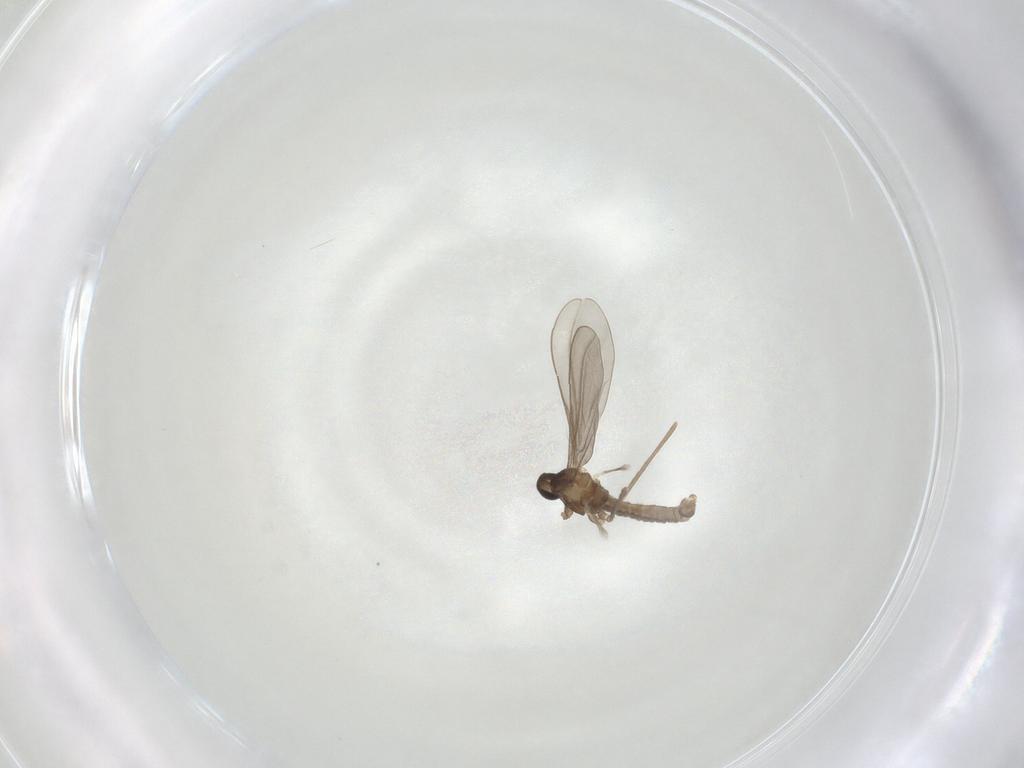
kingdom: Animalia
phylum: Arthropoda
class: Insecta
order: Diptera
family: Cecidomyiidae
